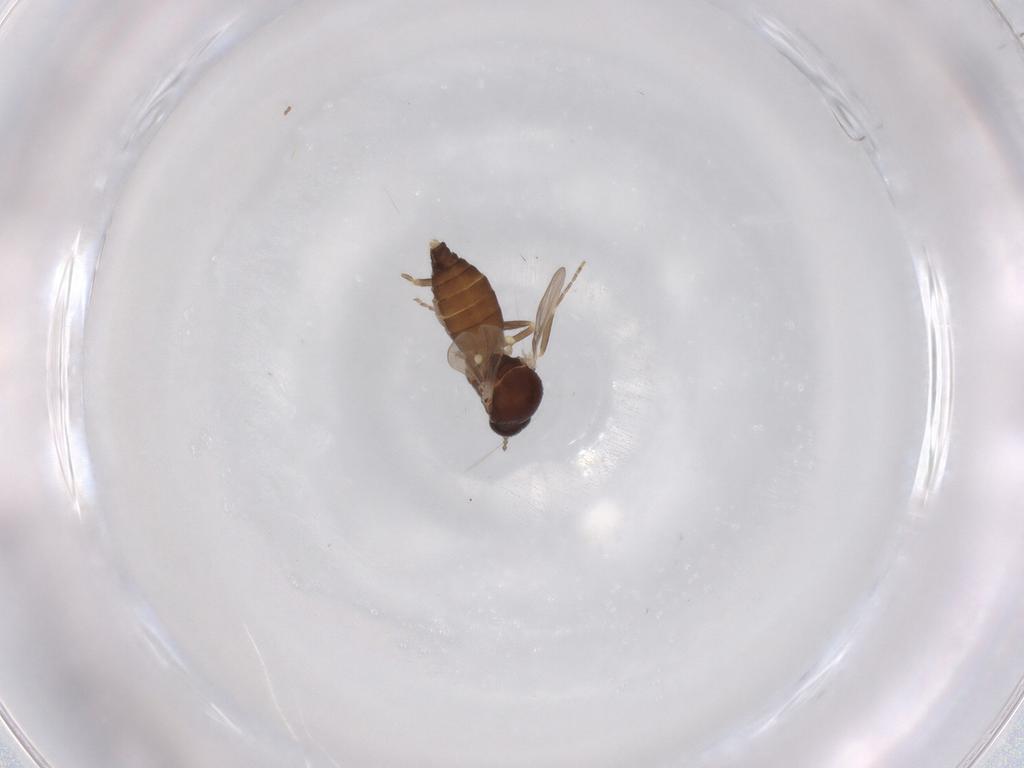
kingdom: Animalia
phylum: Arthropoda
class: Insecta
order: Diptera
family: Ceratopogonidae
